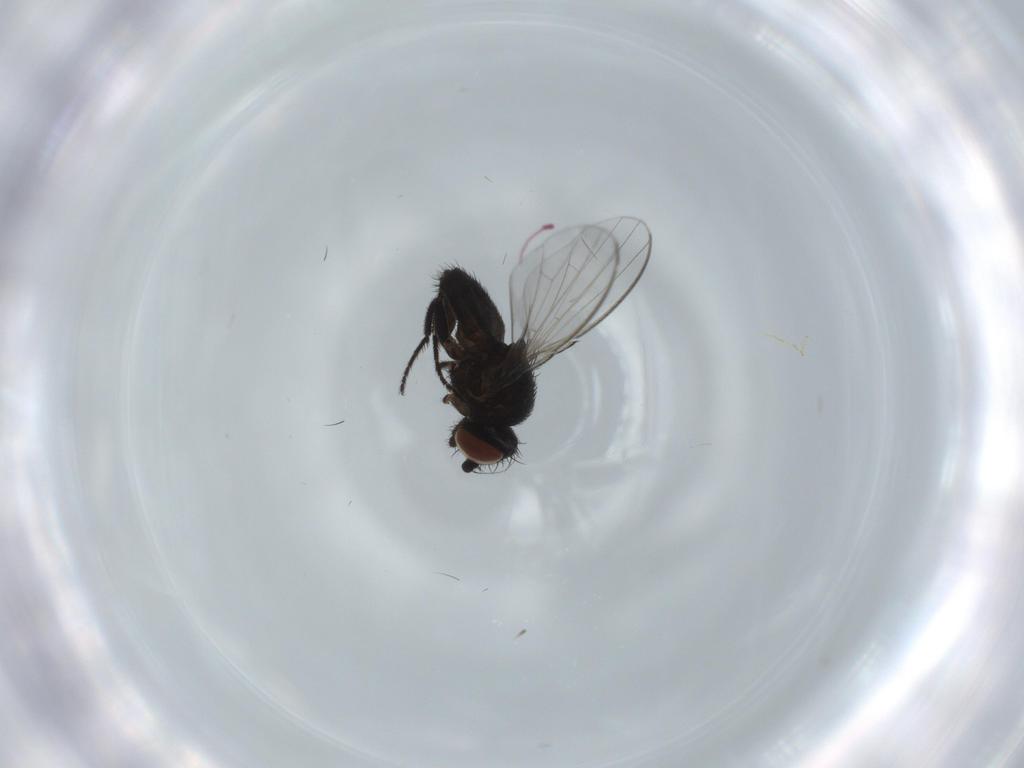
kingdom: Animalia
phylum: Arthropoda
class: Insecta
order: Diptera
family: Milichiidae
